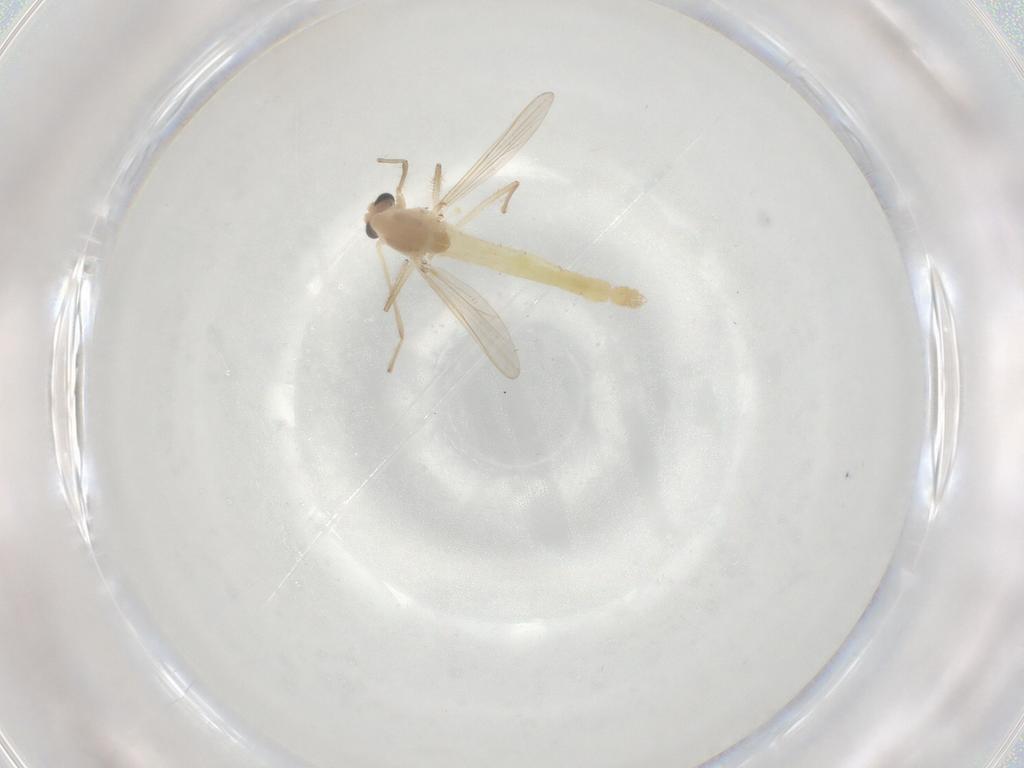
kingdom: Animalia
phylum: Arthropoda
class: Insecta
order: Diptera
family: Chironomidae
